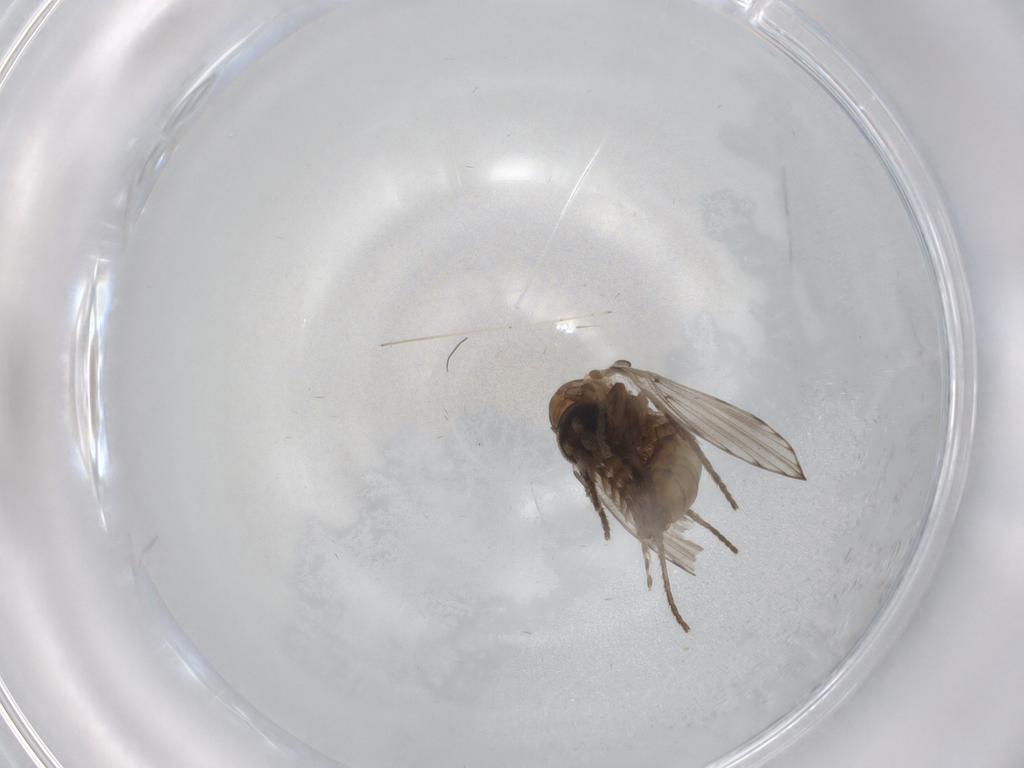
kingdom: Animalia
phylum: Arthropoda
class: Insecta
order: Diptera
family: Psychodidae
